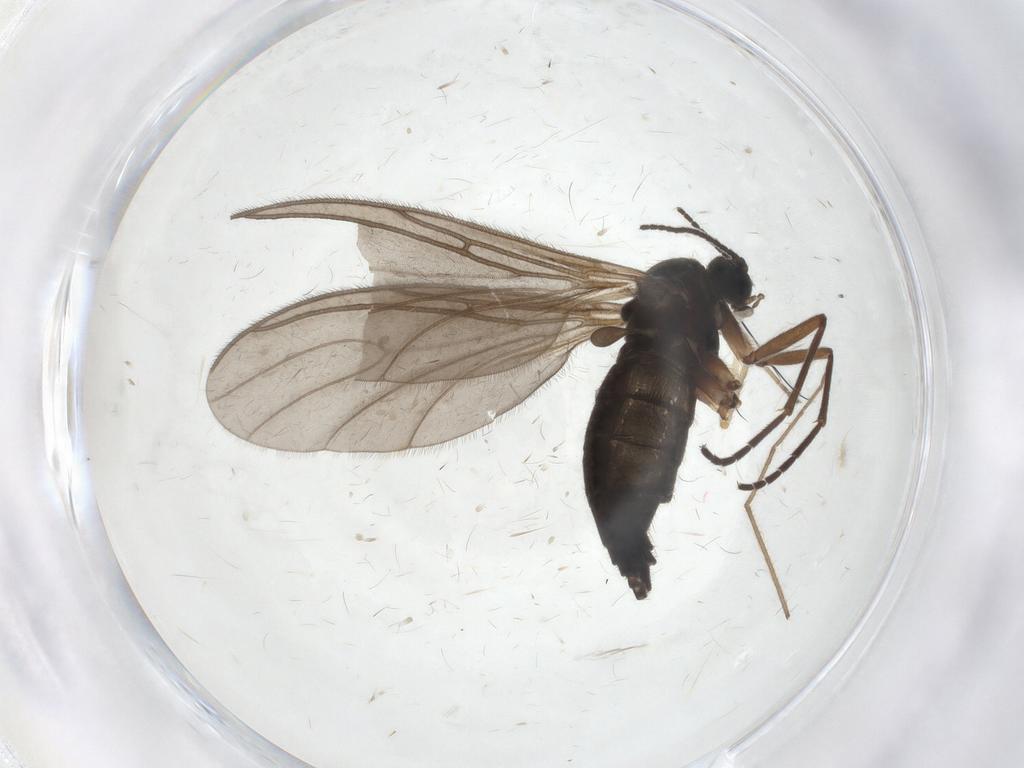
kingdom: Animalia
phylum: Arthropoda
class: Insecta
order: Diptera
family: Ceratopogonidae
